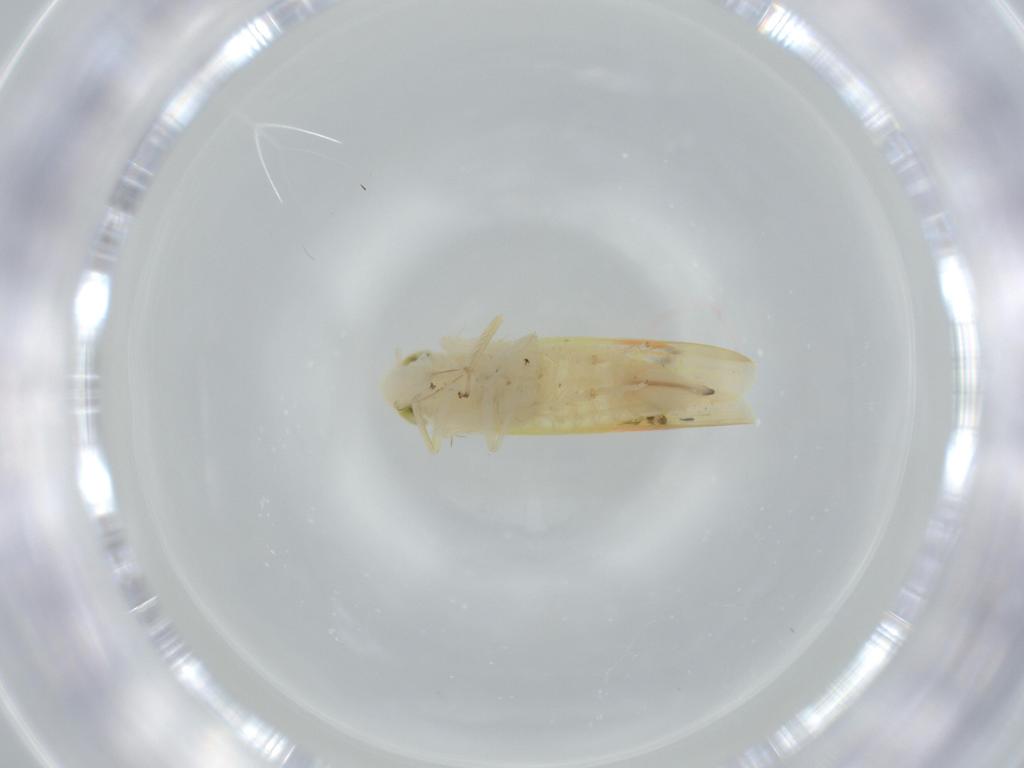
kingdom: Animalia
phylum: Arthropoda
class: Insecta
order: Hemiptera
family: Cicadellidae
